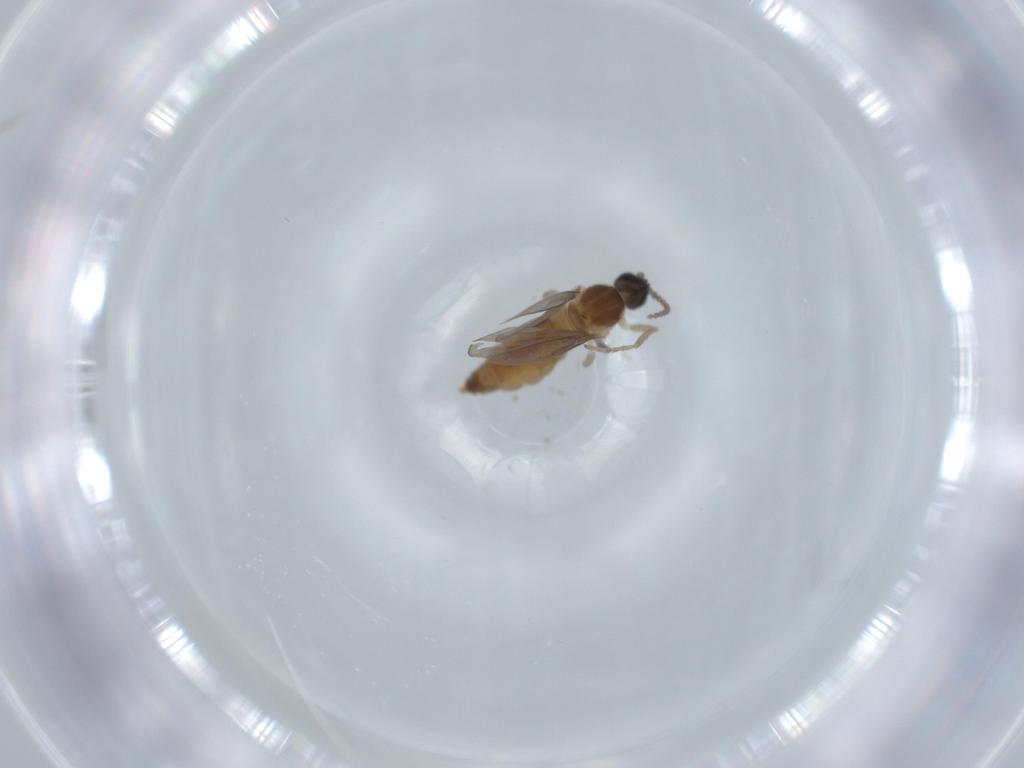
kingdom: Animalia
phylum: Arthropoda
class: Insecta
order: Diptera
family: Cecidomyiidae
